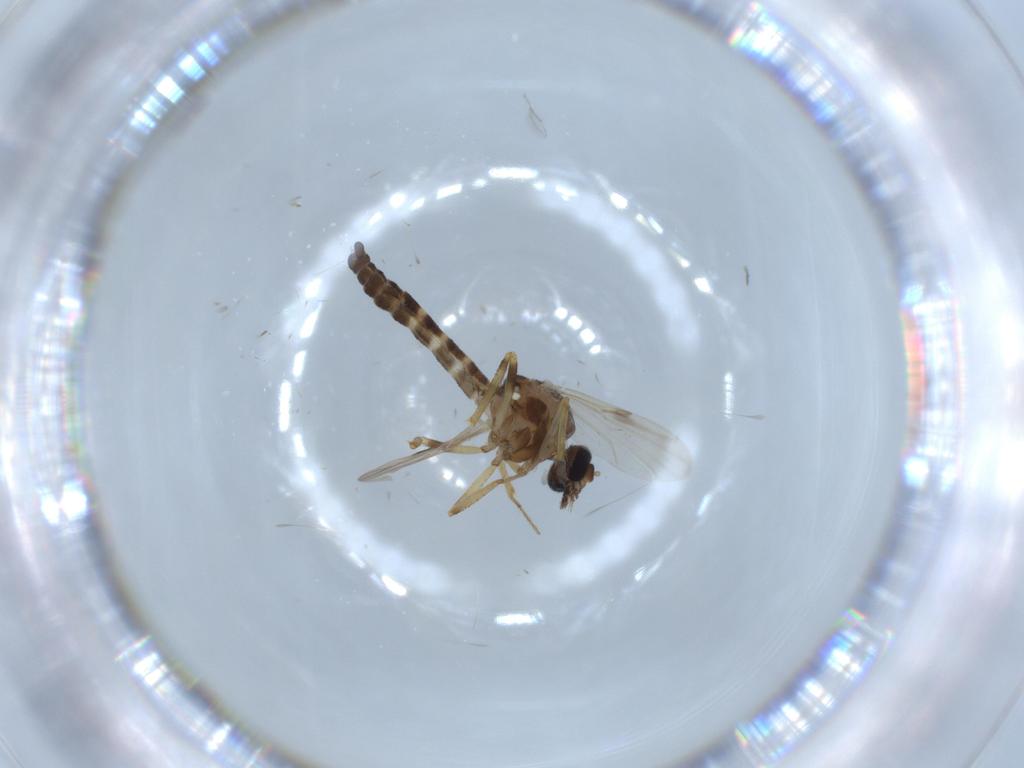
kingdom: Animalia
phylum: Arthropoda
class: Insecta
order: Diptera
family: Ceratopogonidae
